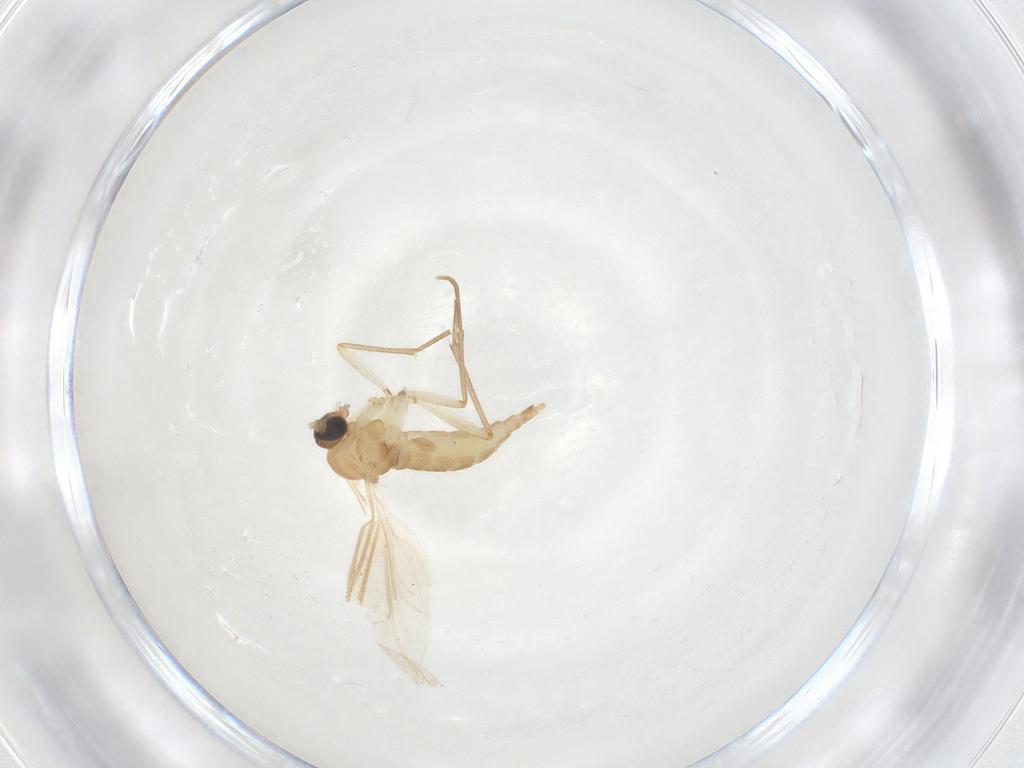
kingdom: Animalia
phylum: Arthropoda
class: Insecta
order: Diptera
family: Sciaridae
